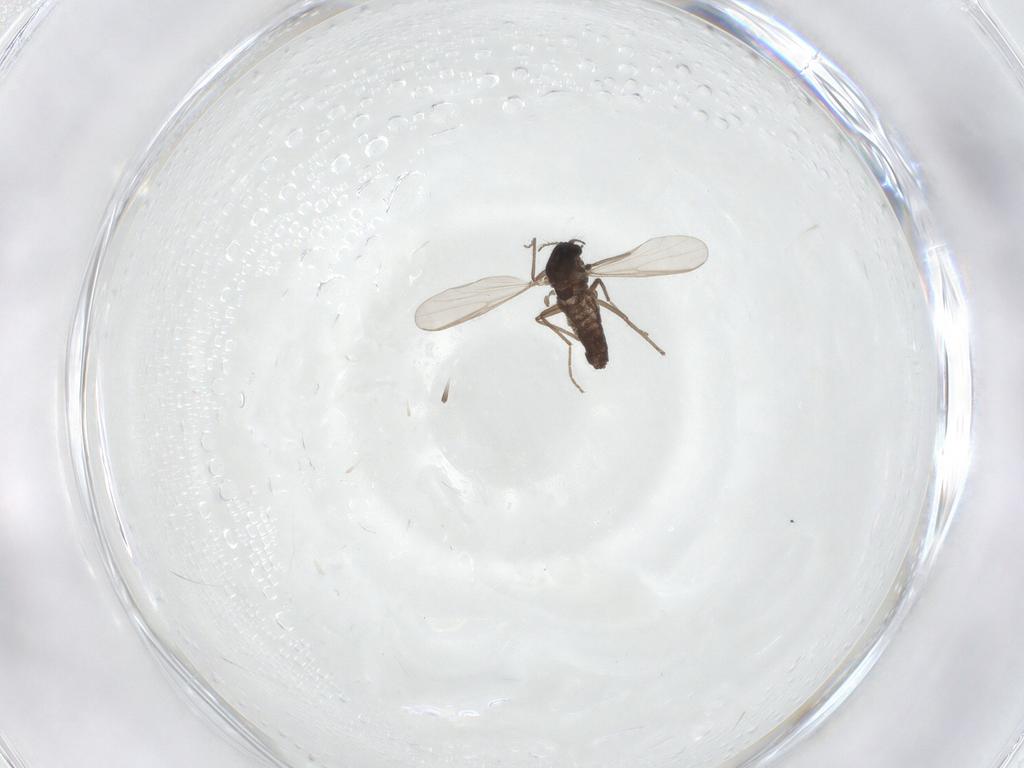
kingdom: Animalia
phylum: Arthropoda
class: Insecta
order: Diptera
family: Chironomidae
